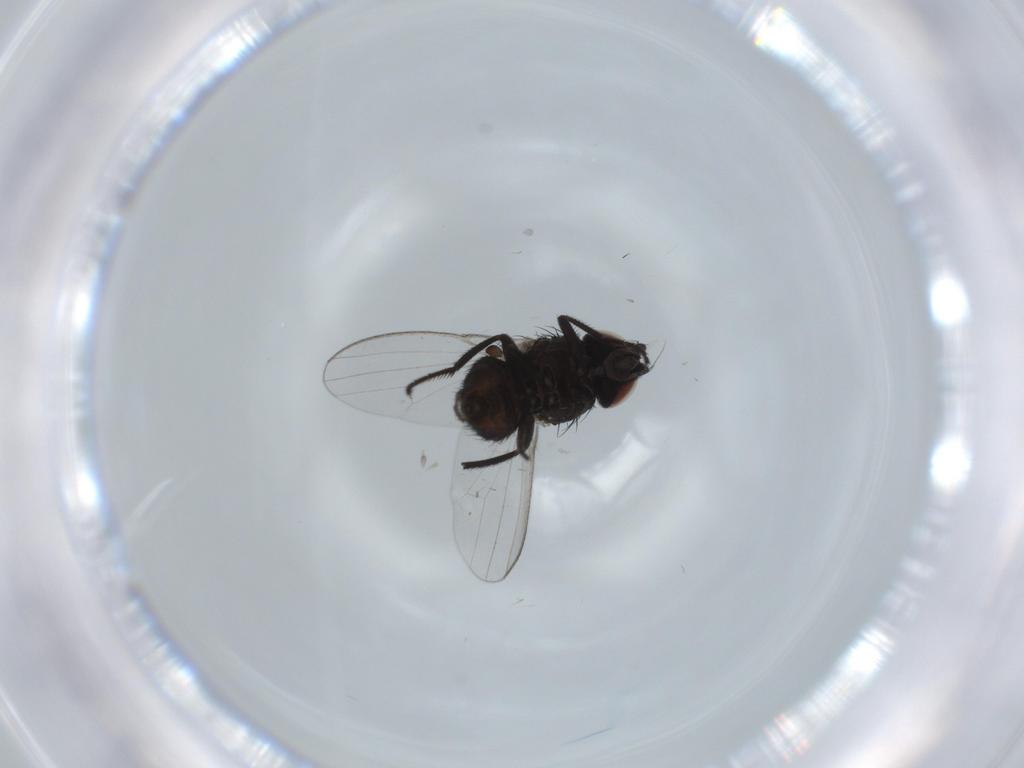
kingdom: Animalia
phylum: Arthropoda
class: Insecta
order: Diptera
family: Milichiidae
